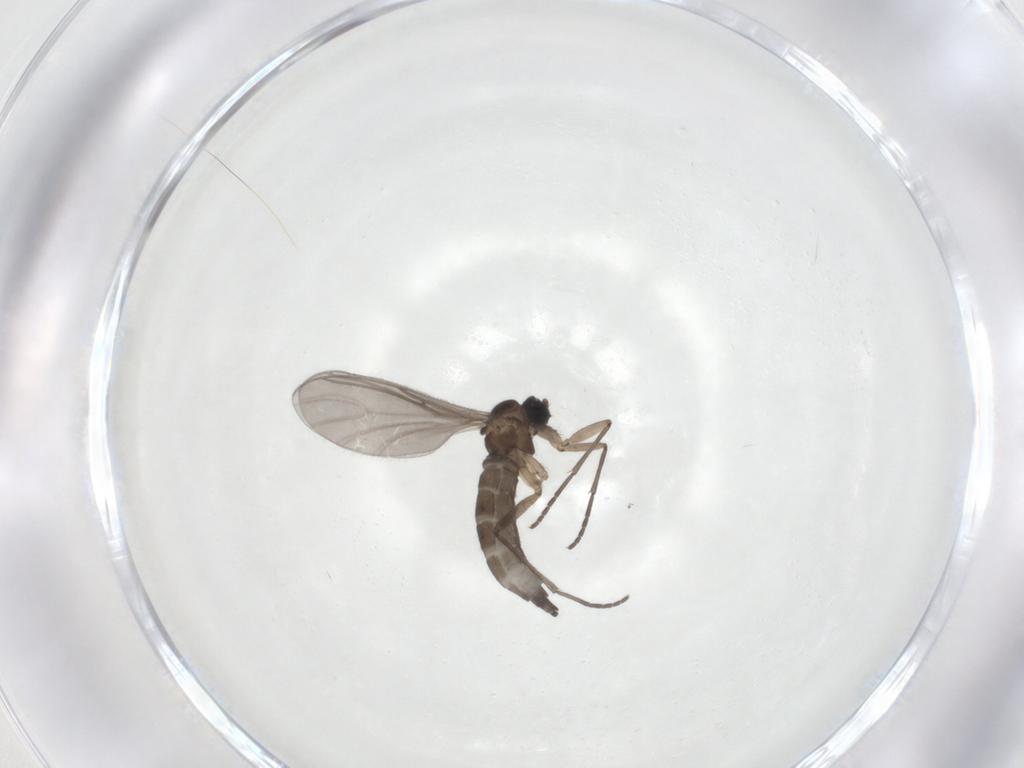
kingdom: Animalia
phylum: Arthropoda
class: Insecta
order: Diptera
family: Sciaridae
